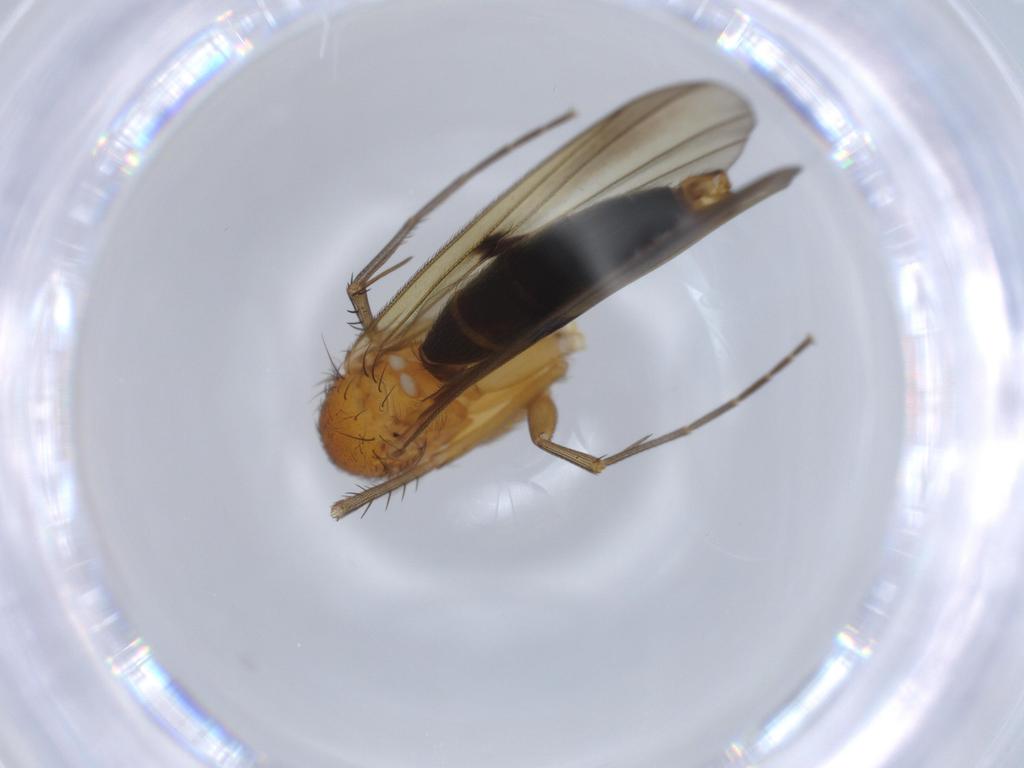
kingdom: Animalia
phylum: Arthropoda
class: Insecta
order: Diptera
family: Mycetophilidae
